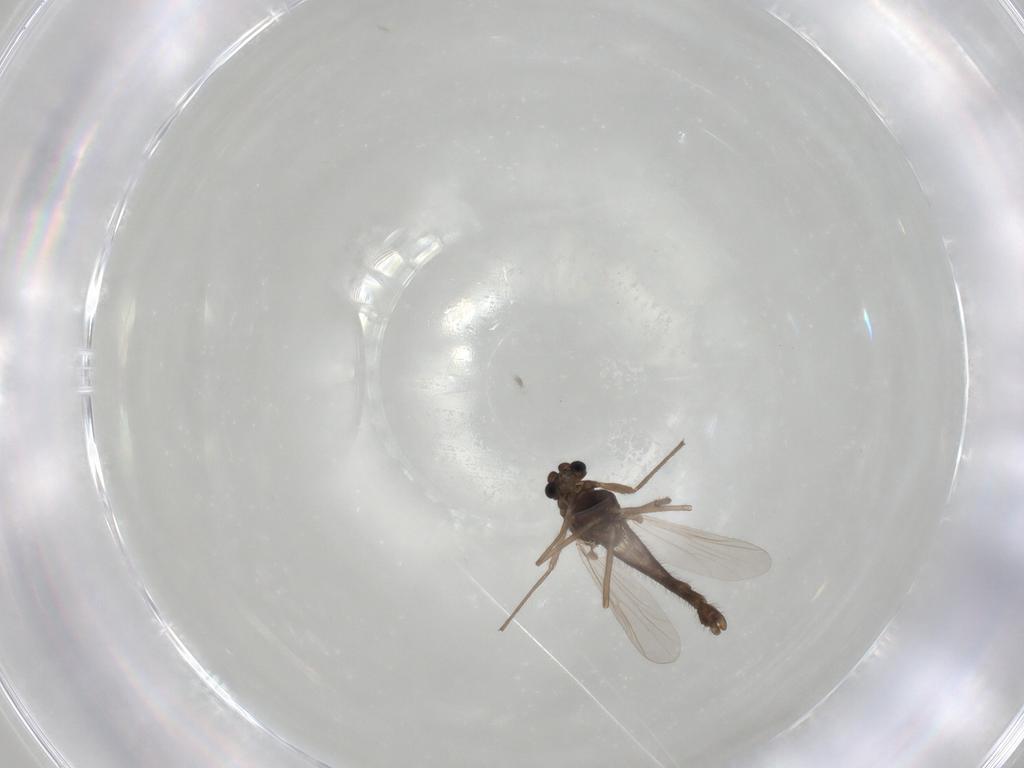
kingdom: Animalia
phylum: Arthropoda
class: Insecta
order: Diptera
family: Chironomidae
